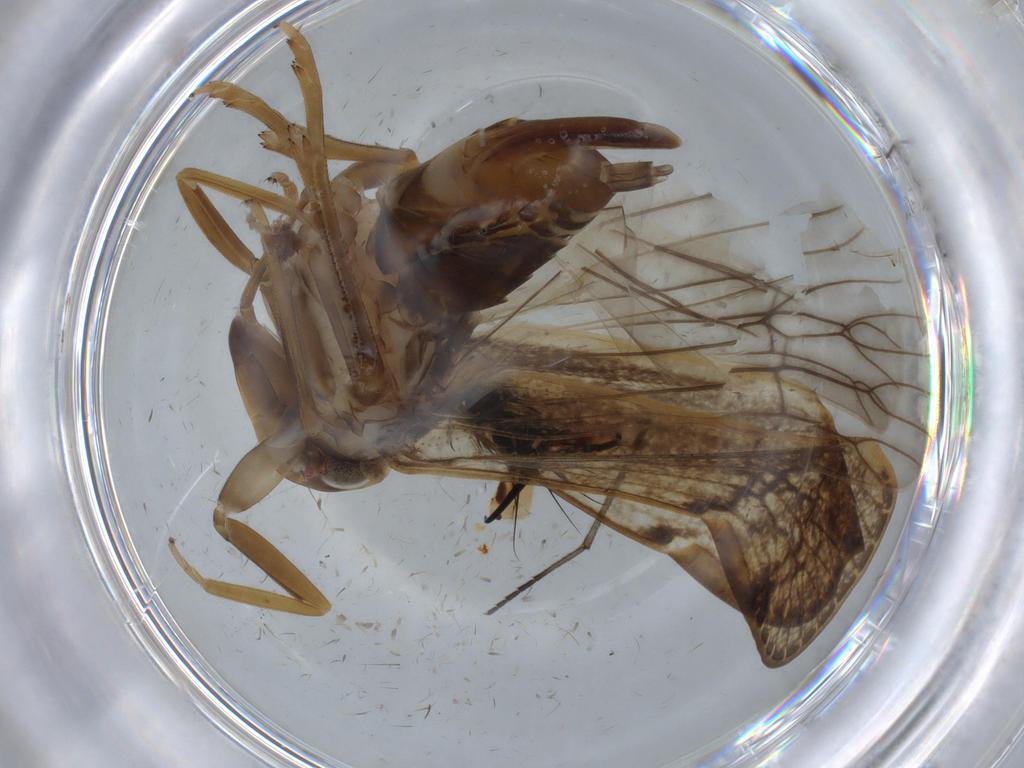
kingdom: Animalia
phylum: Arthropoda
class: Insecta
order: Hemiptera
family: Cixiidae
